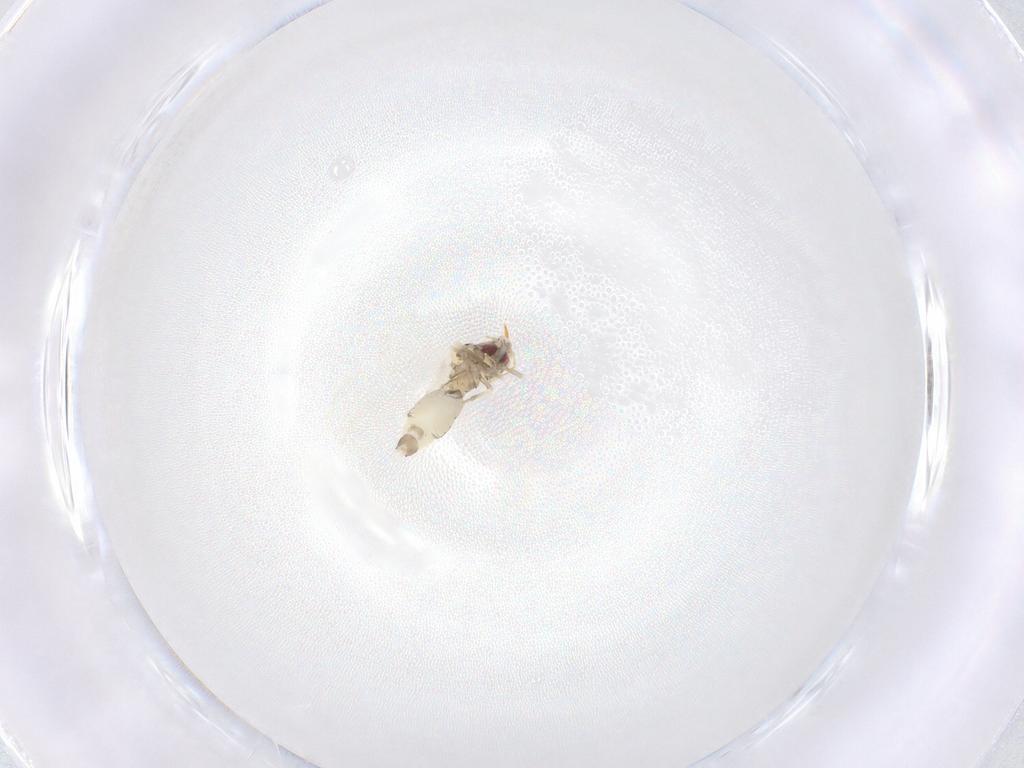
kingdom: Animalia
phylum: Arthropoda
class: Insecta
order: Hemiptera
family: Aleyrodidae
